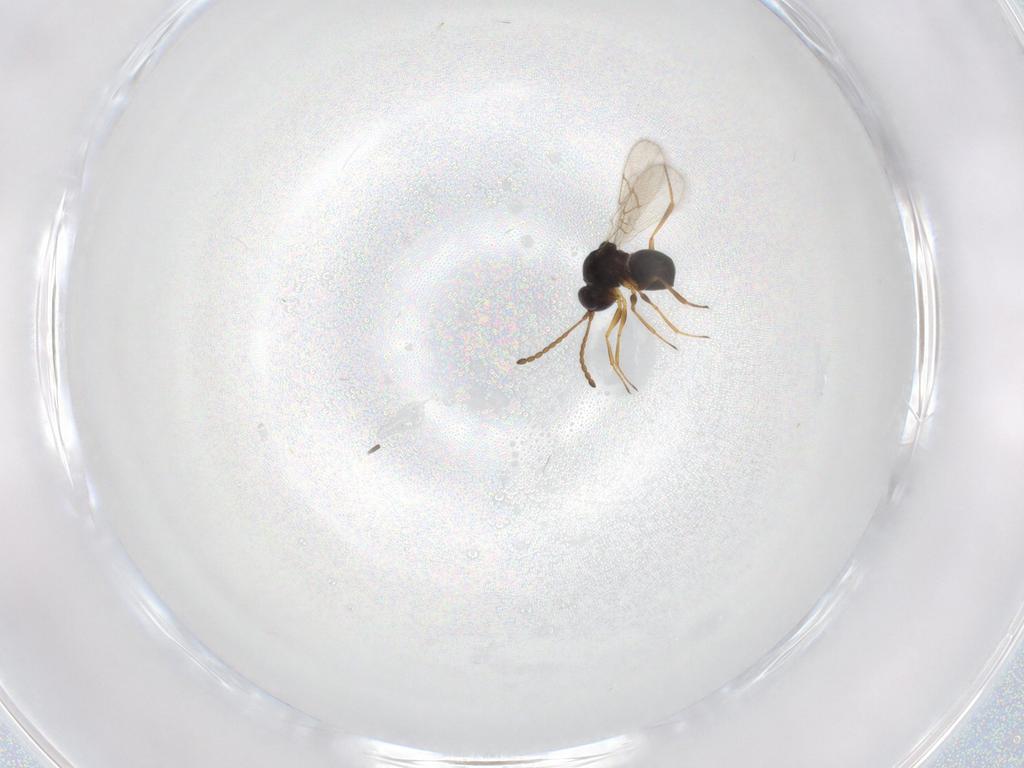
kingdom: Animalia
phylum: Arthropoda
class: Insecta
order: Hymenoptera
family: Figitidae
